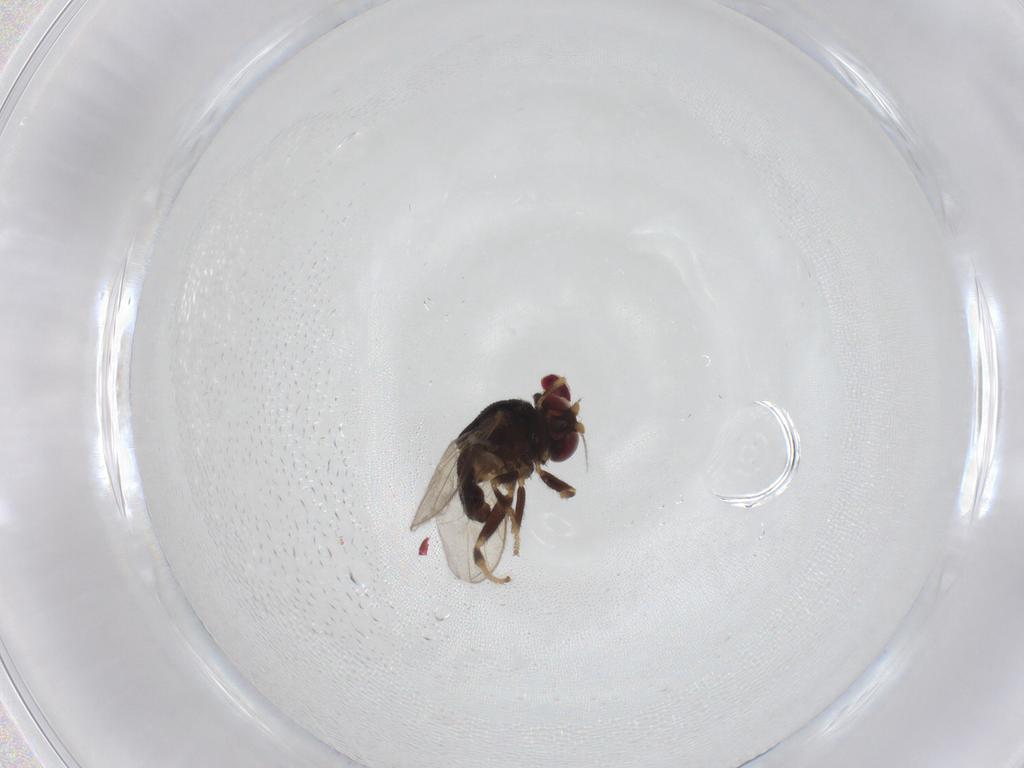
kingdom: Animalia
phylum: Arthropoda
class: Insecta
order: Diptera
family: Chloropidae
